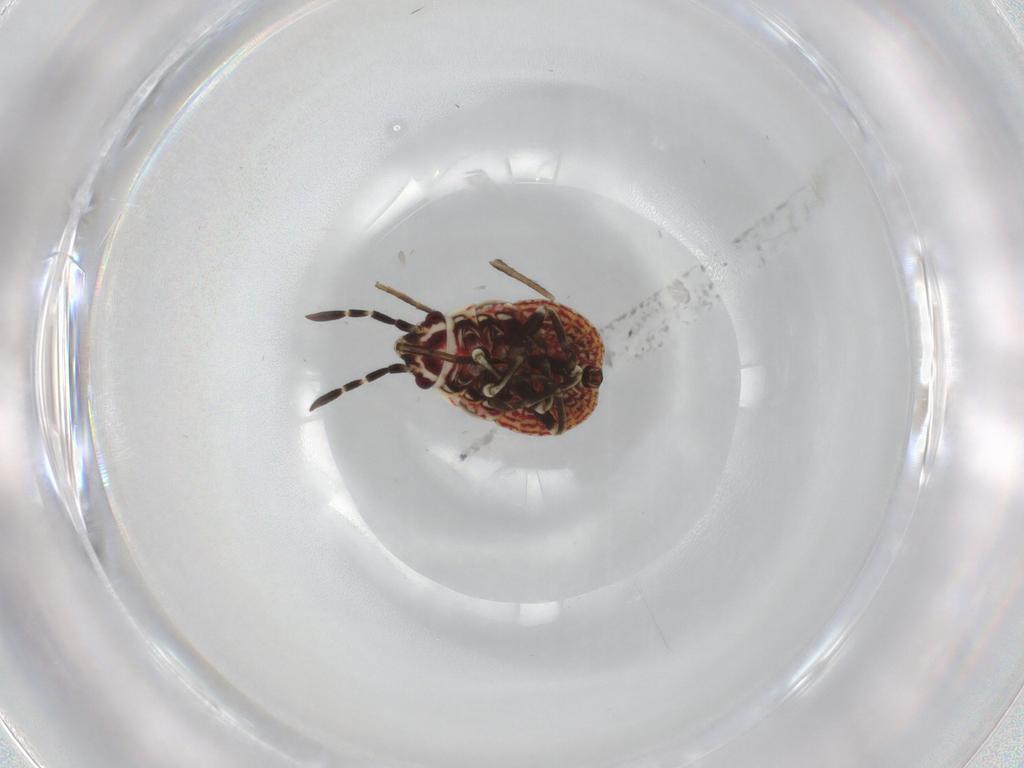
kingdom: Animalia
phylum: Arthropoda
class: Insecta
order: Hemiptera
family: Lygaeidae
